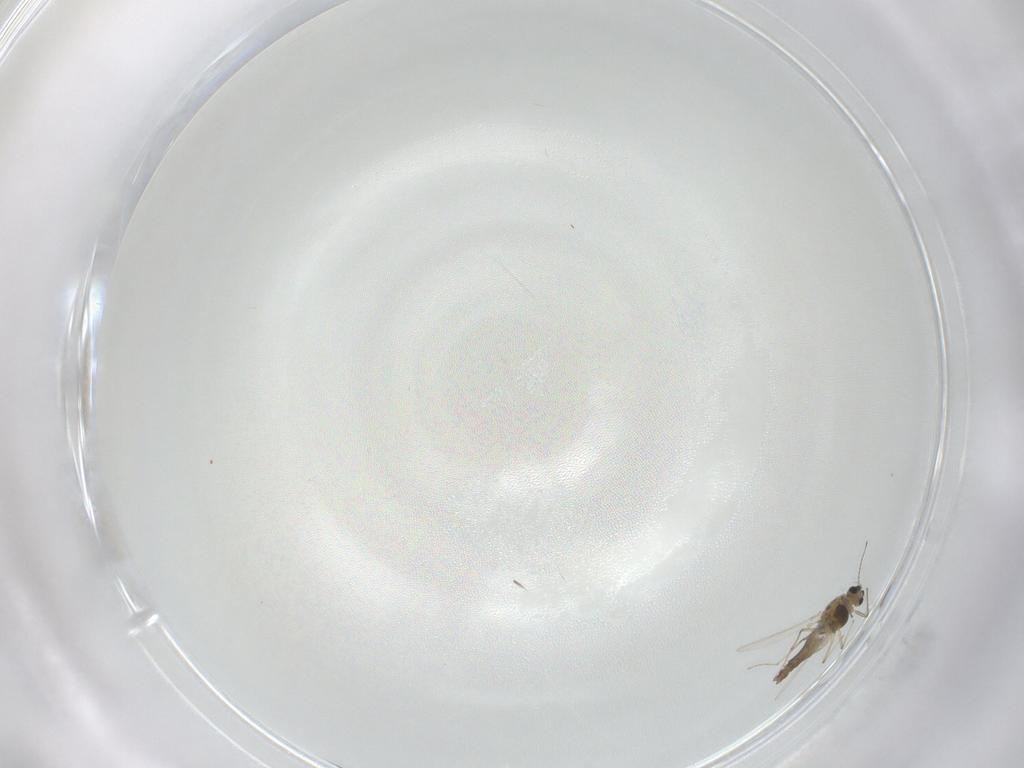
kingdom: Animalia
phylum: Arthropoda
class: Insecta
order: Diptera
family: Chironomidae
